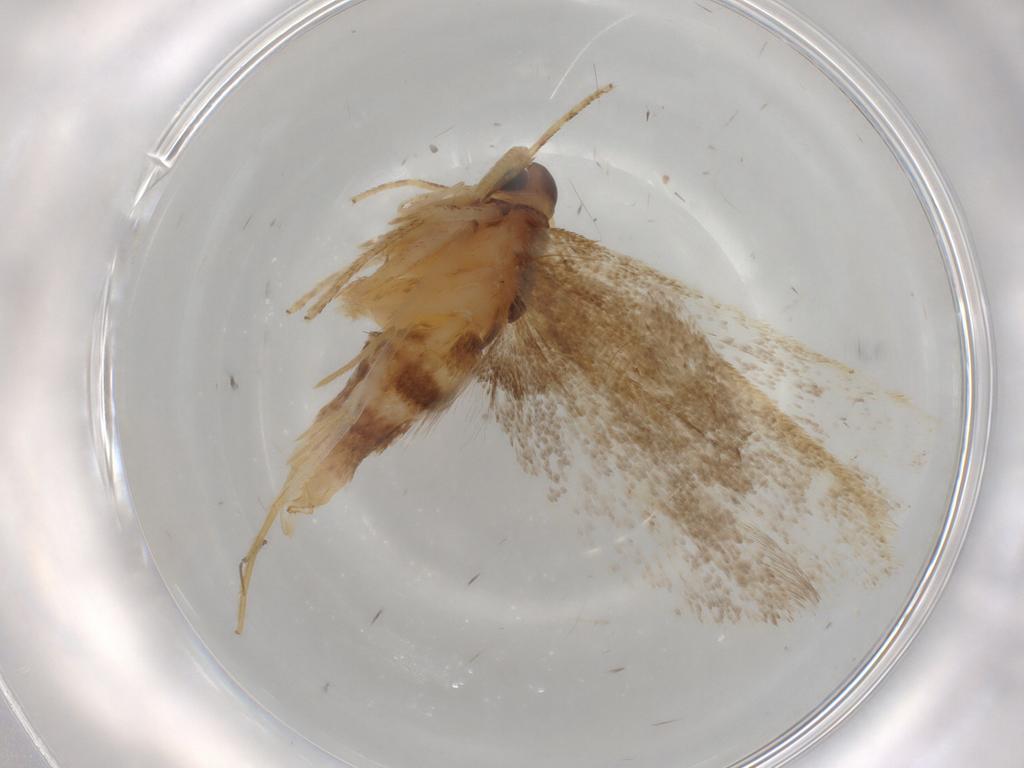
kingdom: Animalia
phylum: Arthropoda
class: Insecta
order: Lepidoptera
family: Lecithoceridae
